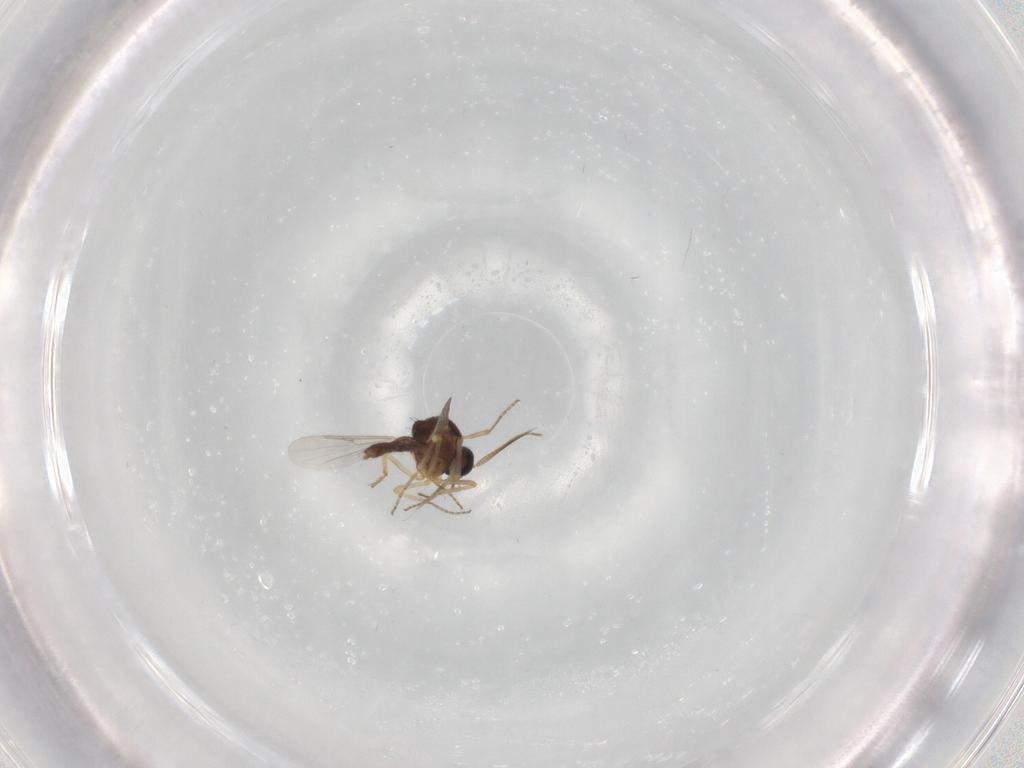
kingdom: Animalia
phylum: Arthropoda
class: Insecta
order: Diptera
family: Ceratopogonidae
